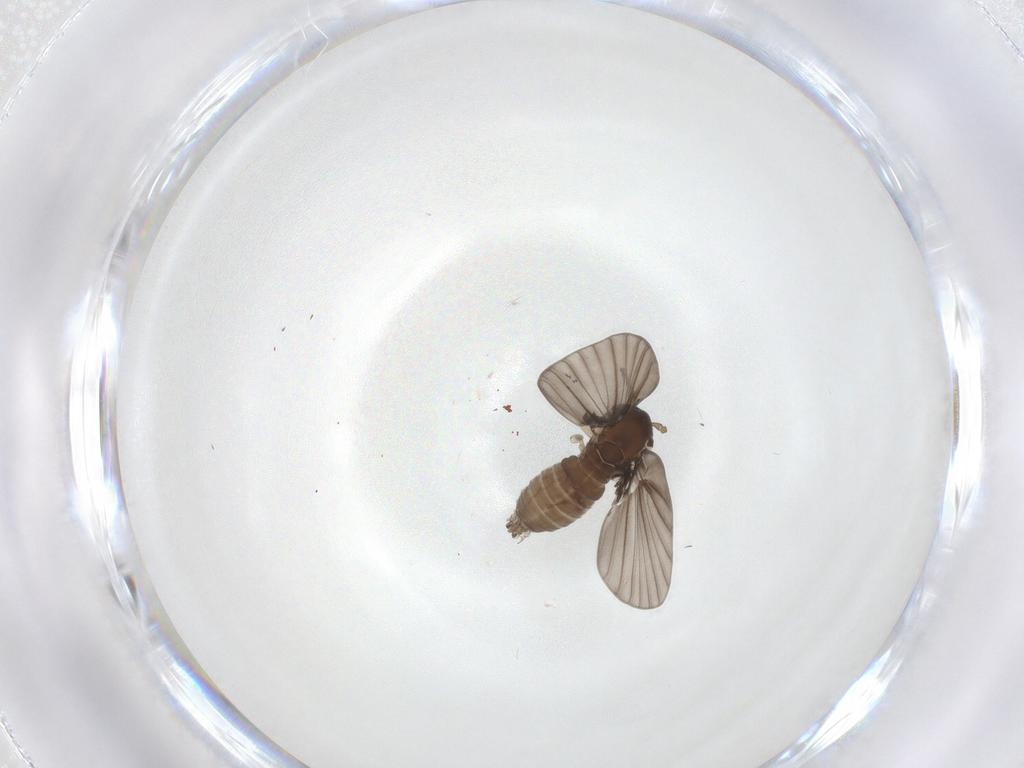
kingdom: Animalia
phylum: Arthropoda
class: Insecta
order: Diptera
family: Psychodidae
